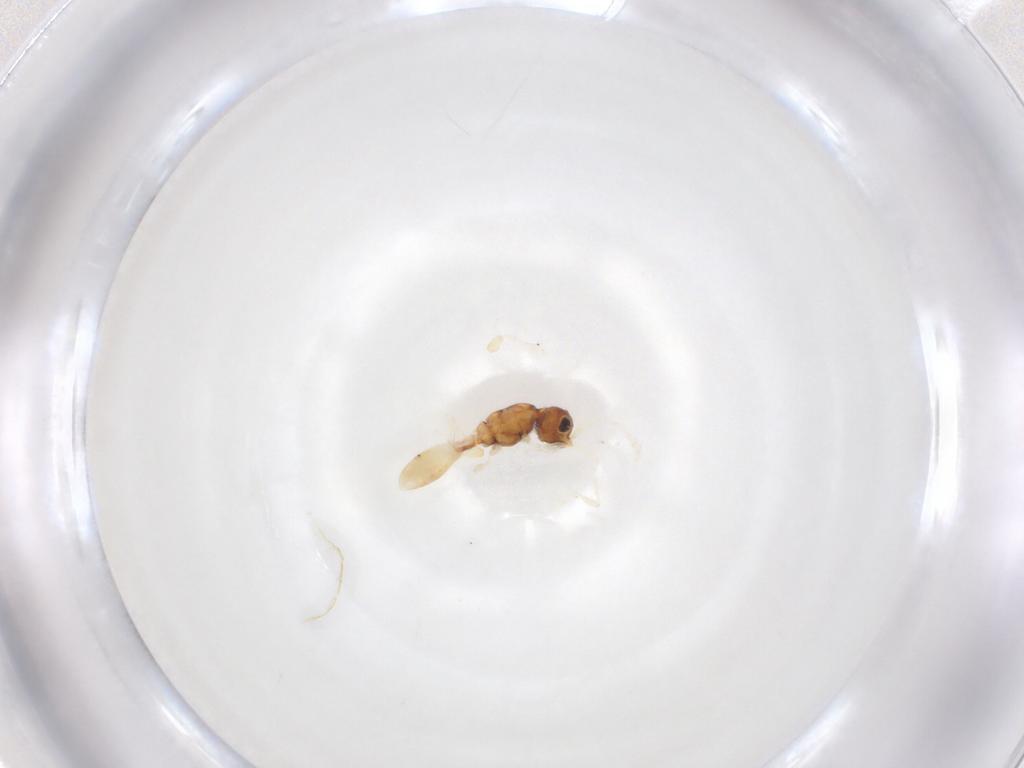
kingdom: Animalia
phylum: Arthropoda
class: Insecta
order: Hymenoptera
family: Diapriidae
